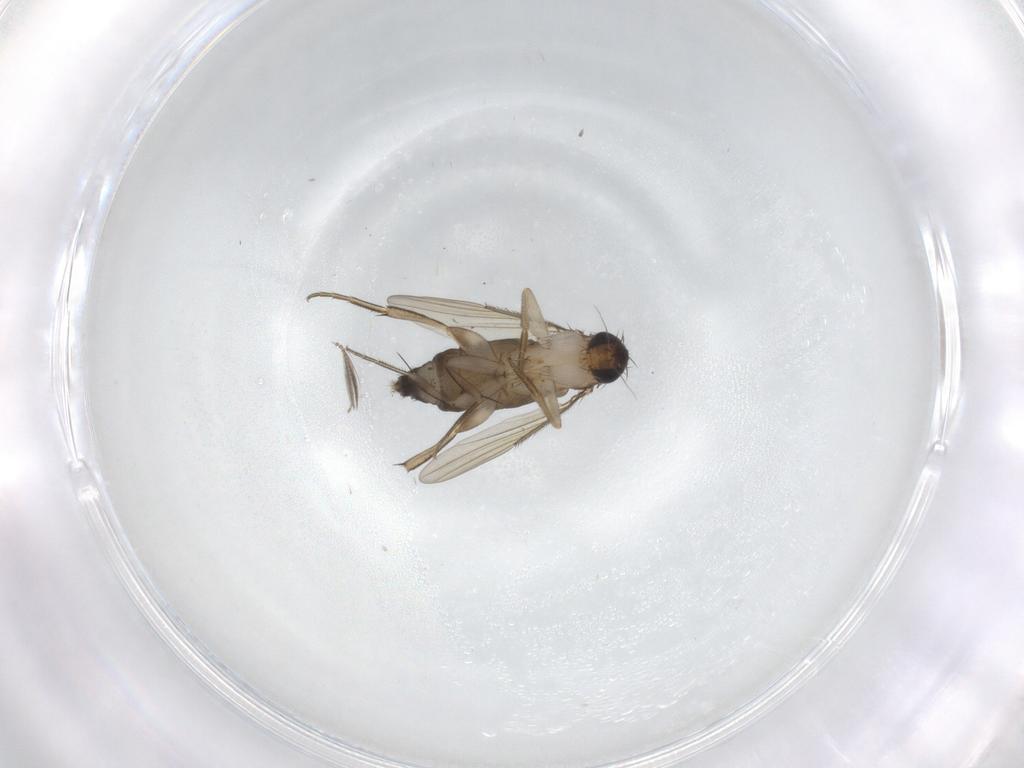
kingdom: Animalia
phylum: Arthropoda
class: Insecta
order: Diptera
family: Phoridae
